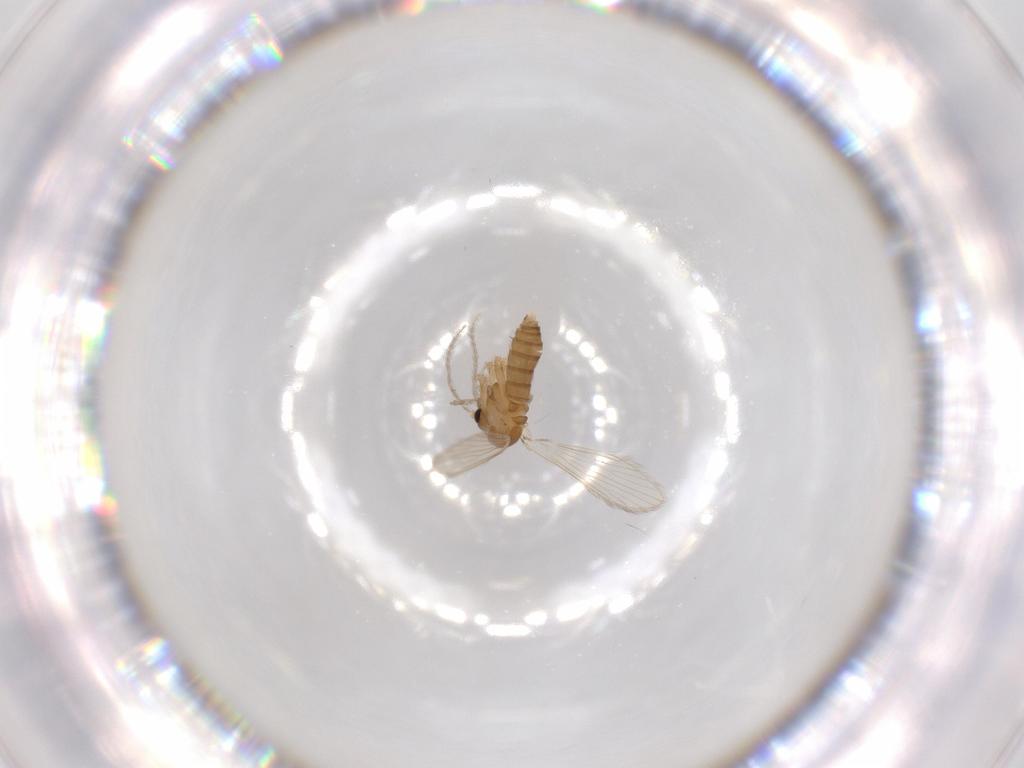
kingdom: Animalia
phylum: Arthropoda
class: Insecta
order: Diptera
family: Psychodidae
